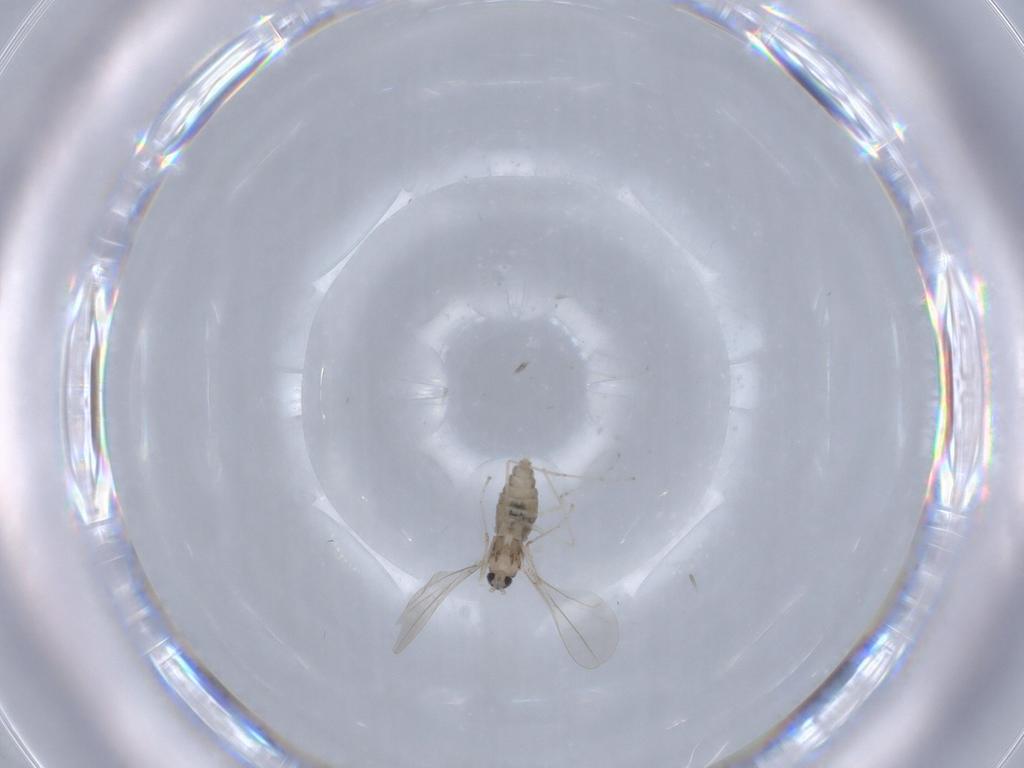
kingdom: Animalia
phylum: Arthropoda
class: Insecta
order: Diptera
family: Cecidomyiidae
